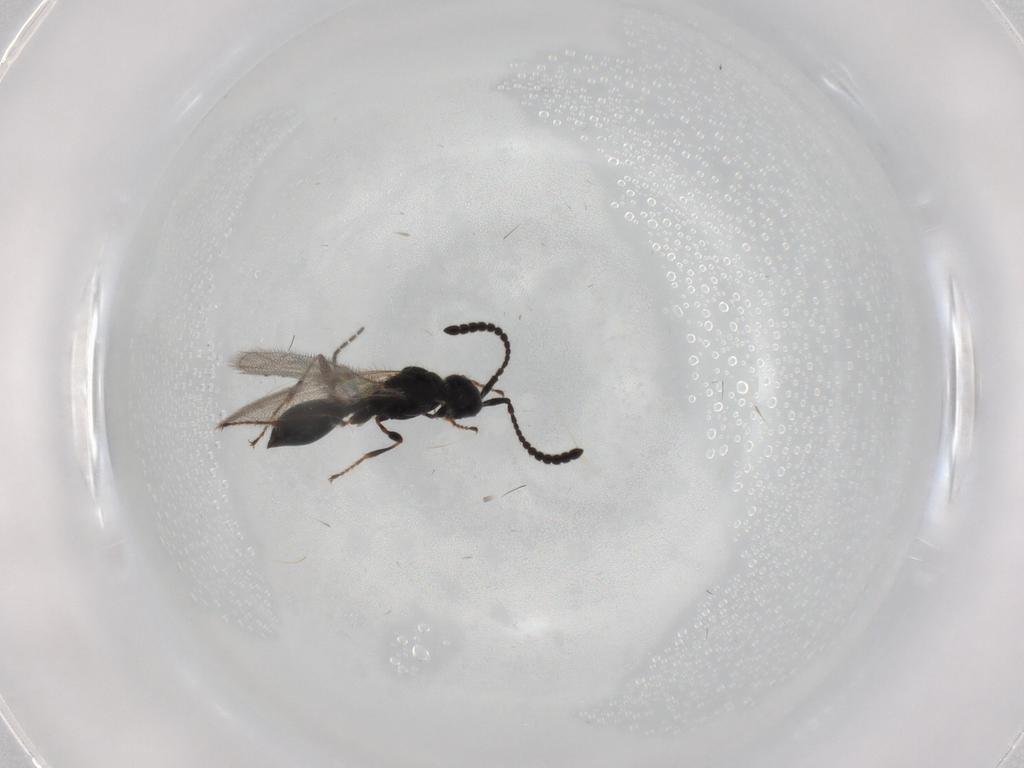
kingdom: Animalia
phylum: Arthropoda
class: Insecta
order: Hymenoptera
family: Diapriidae
